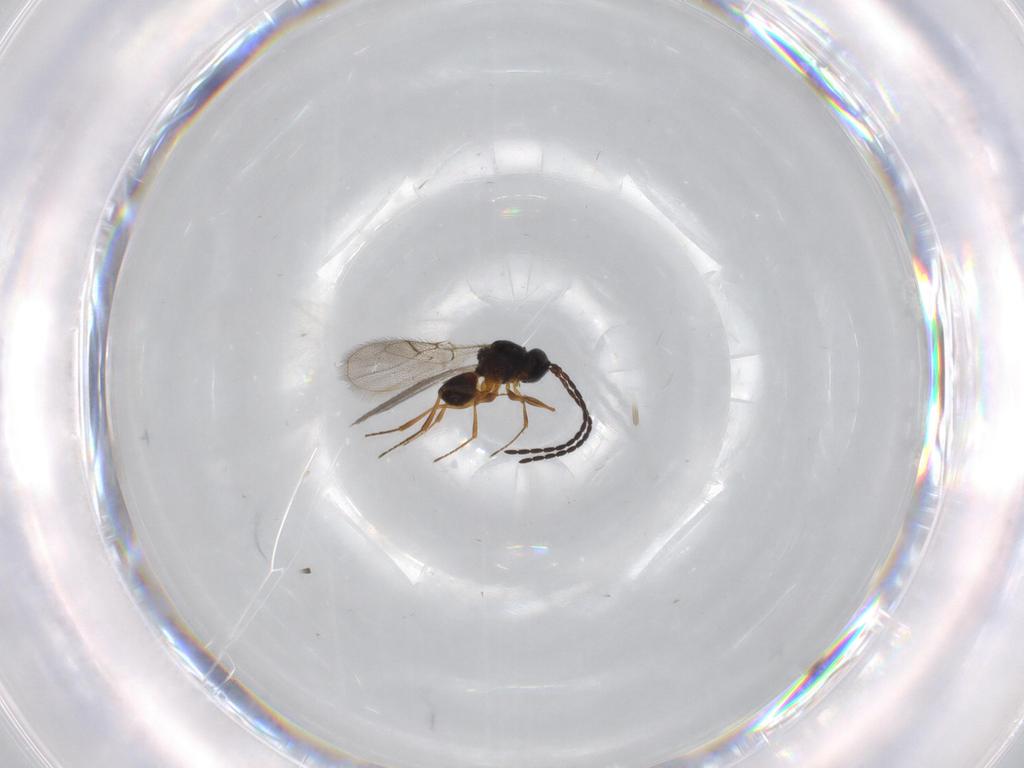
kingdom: Animalia
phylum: Arthropoda
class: Insecta
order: Hymenoptera
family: Figitidae
